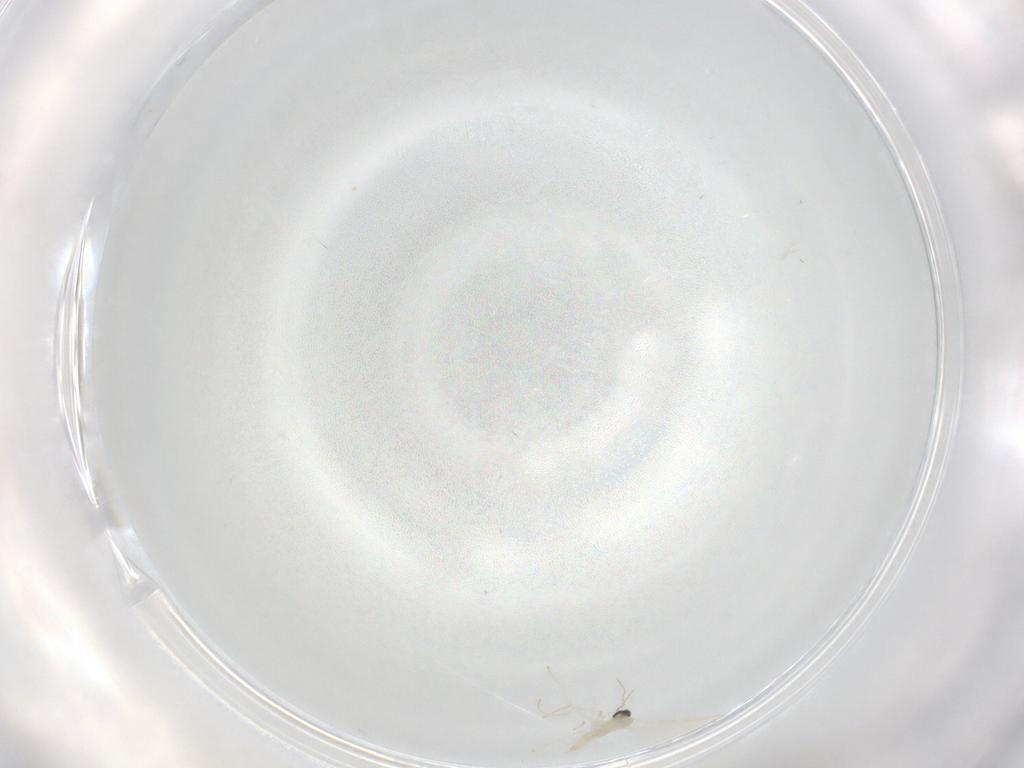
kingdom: Animalia
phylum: Arthropoda
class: Insecta
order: Diptera
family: Cecidomyiidae
